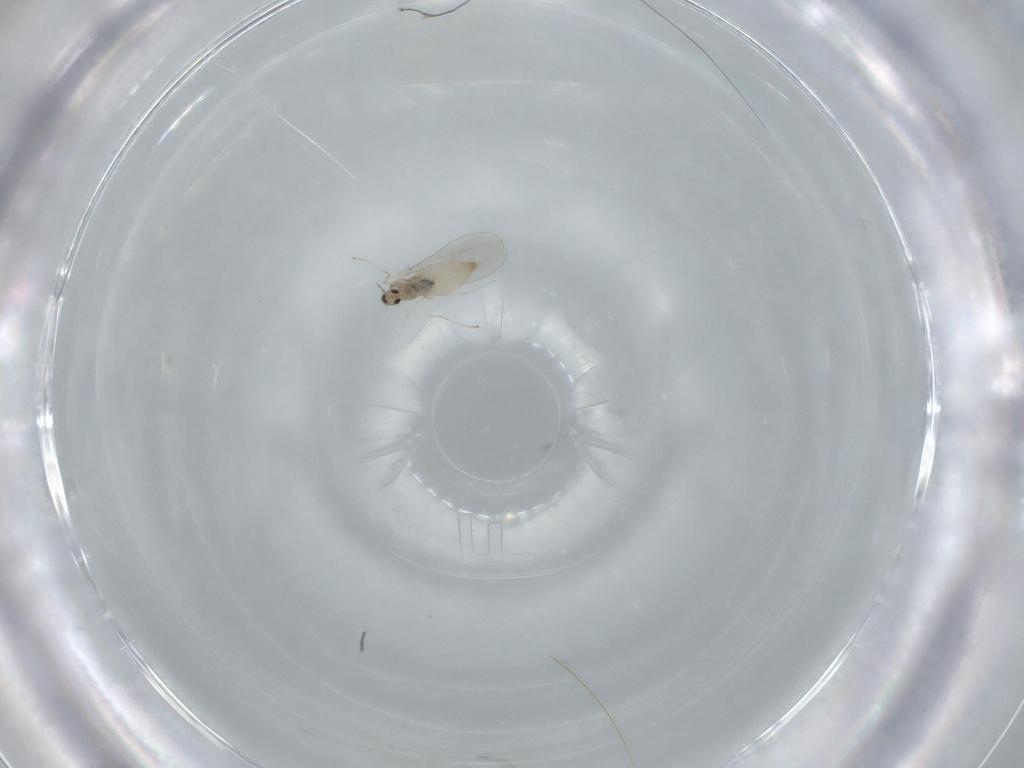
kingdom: Animalia
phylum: Arthropoda
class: Insecta
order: Diptera
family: Cecidomyiidae
